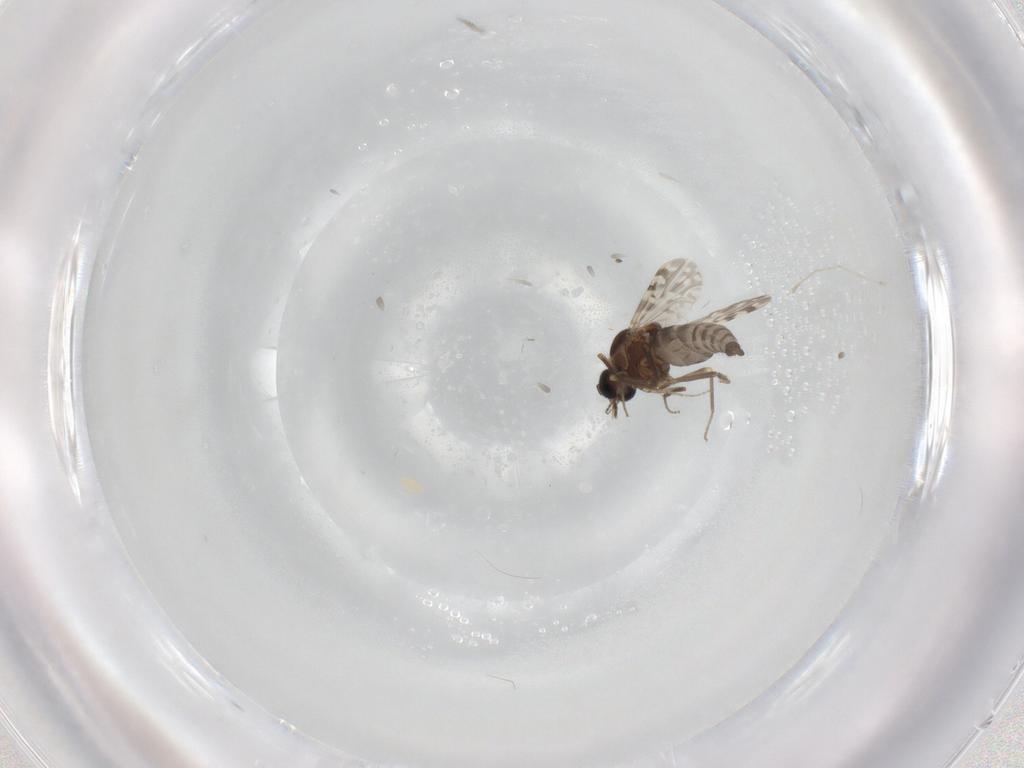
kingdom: Animalia
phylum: Arthropoda
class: Insecta
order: Diptera
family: Ceratopogonidae
